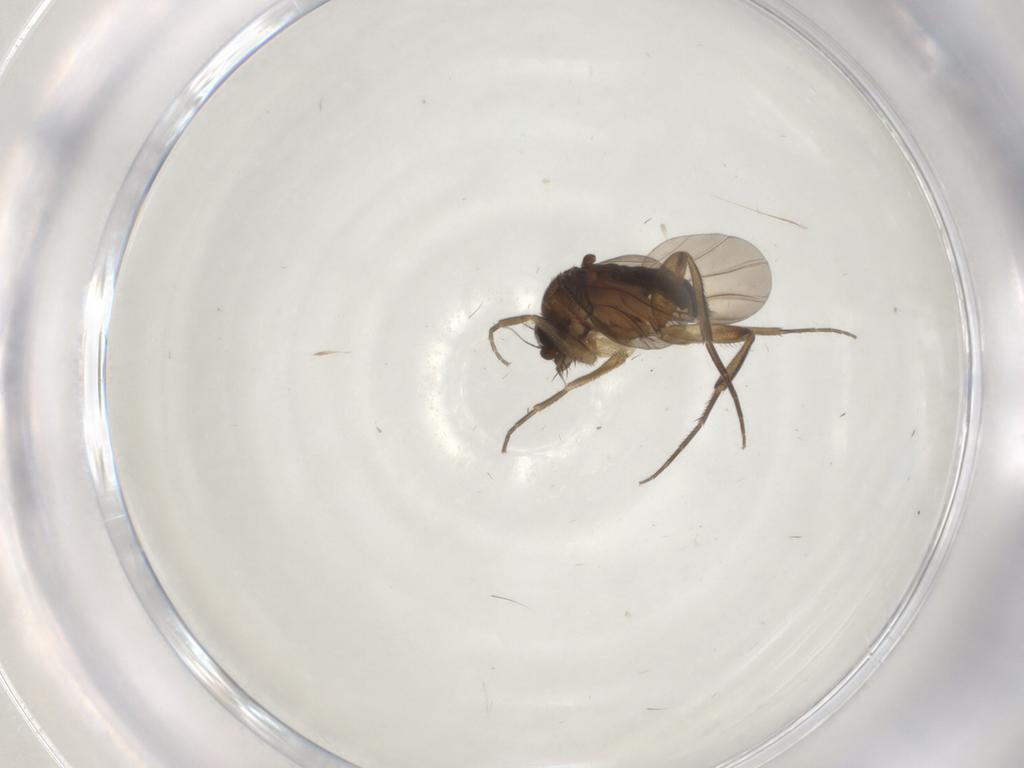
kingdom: Animalia
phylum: Arthropoda
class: Insecta
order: Diptera
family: Phoridae
